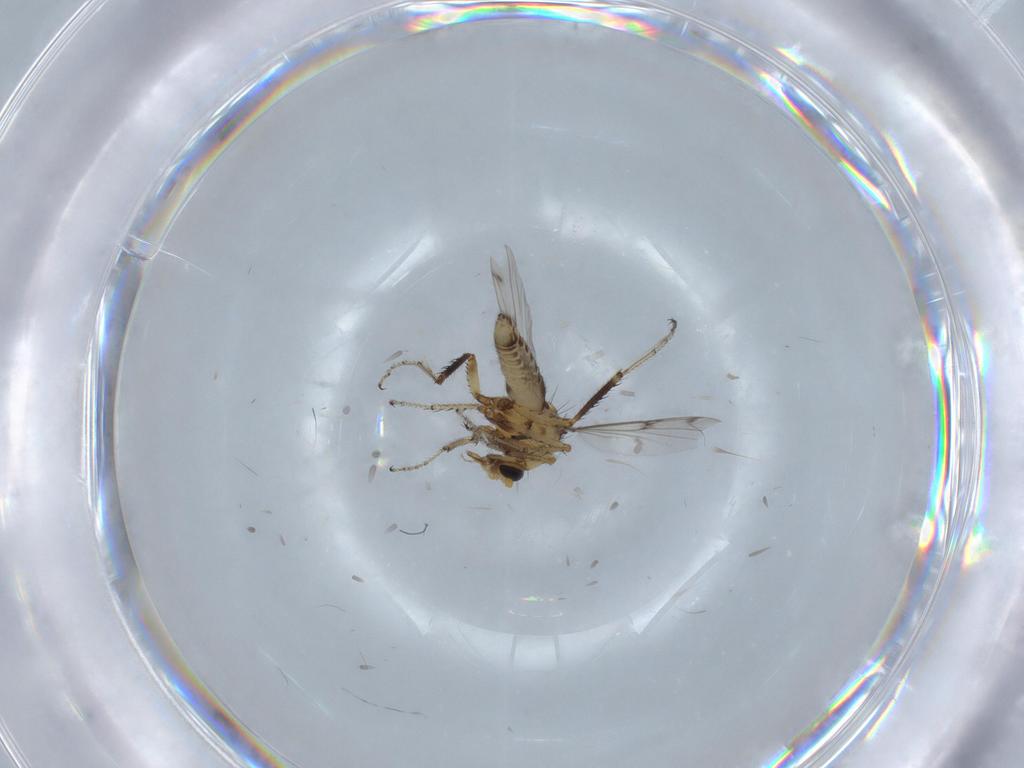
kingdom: Animalia
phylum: Arthropoda
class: Insecta
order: Diptera
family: Ceratopogonidae
